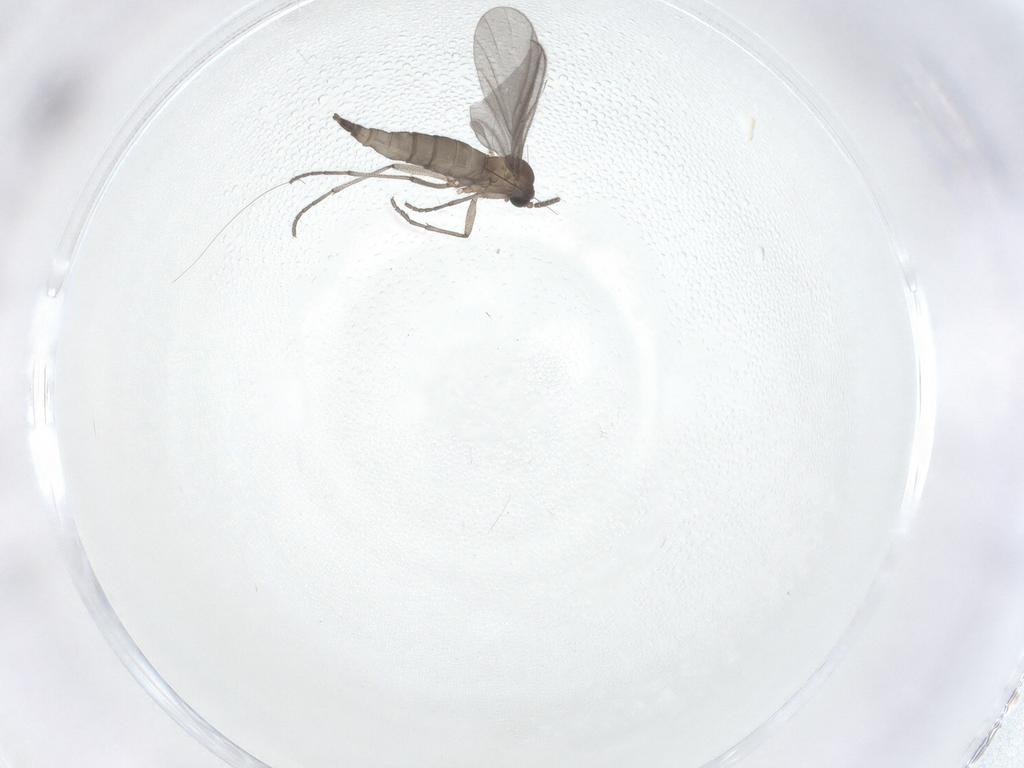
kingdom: Animalia
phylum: Arthropoda
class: Insecta
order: Diptera
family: Sciaridae
